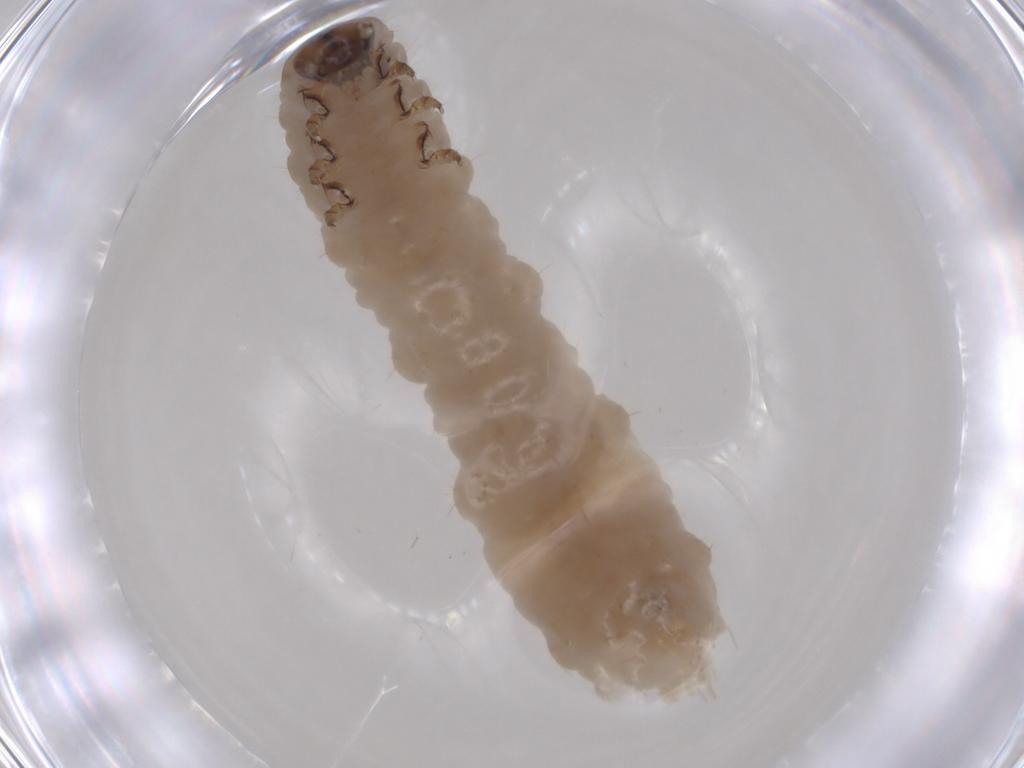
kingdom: Animalia
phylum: Arthropoda
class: Insecta
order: Coleoptera
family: Chrysomelidae
